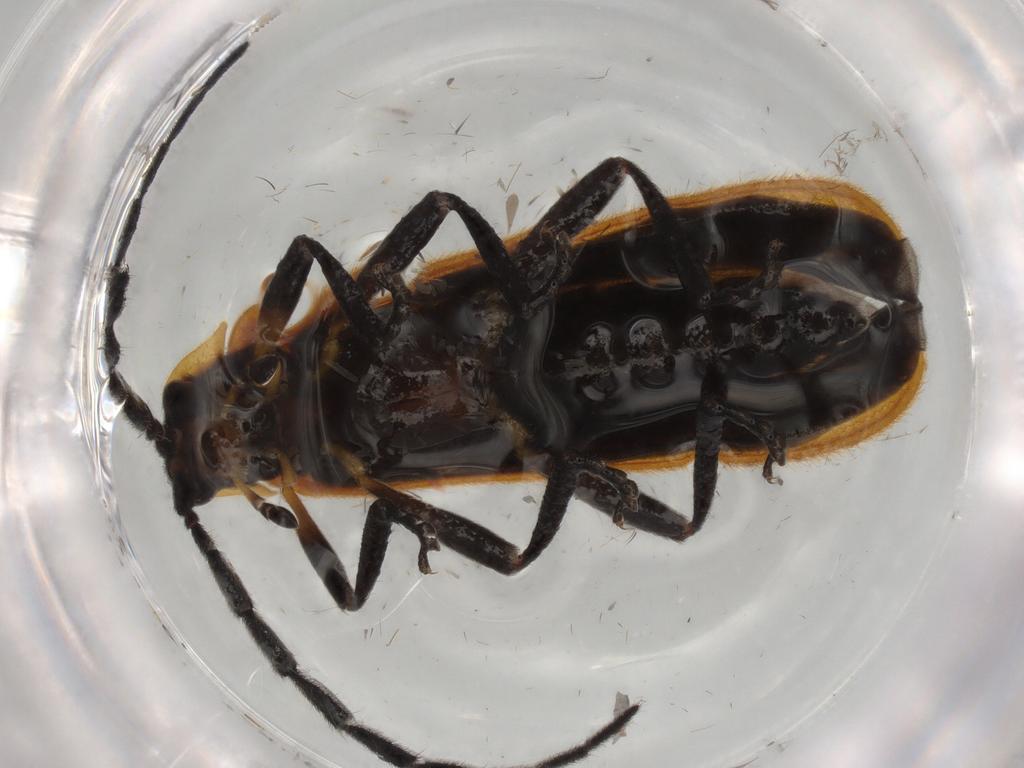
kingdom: Animalia
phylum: Arthropoda
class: Insecta
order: Coleoptera
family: Lycidae
